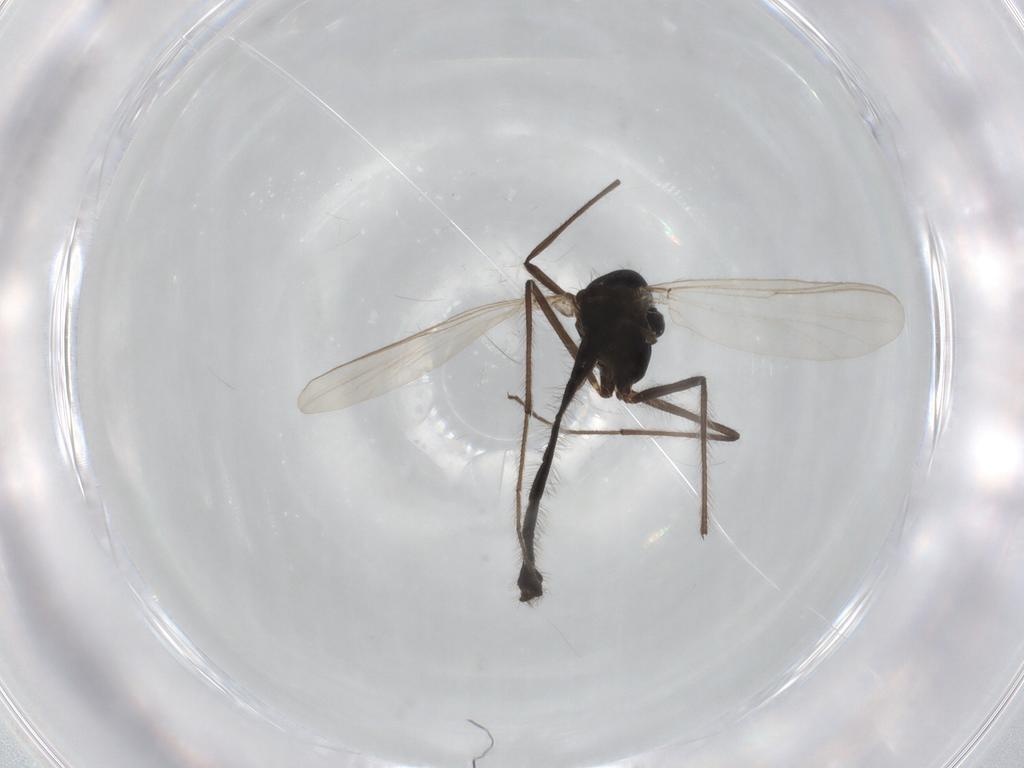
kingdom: Animalia
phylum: Arthropoda
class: Insecta
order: Diptera
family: Chironomidae
